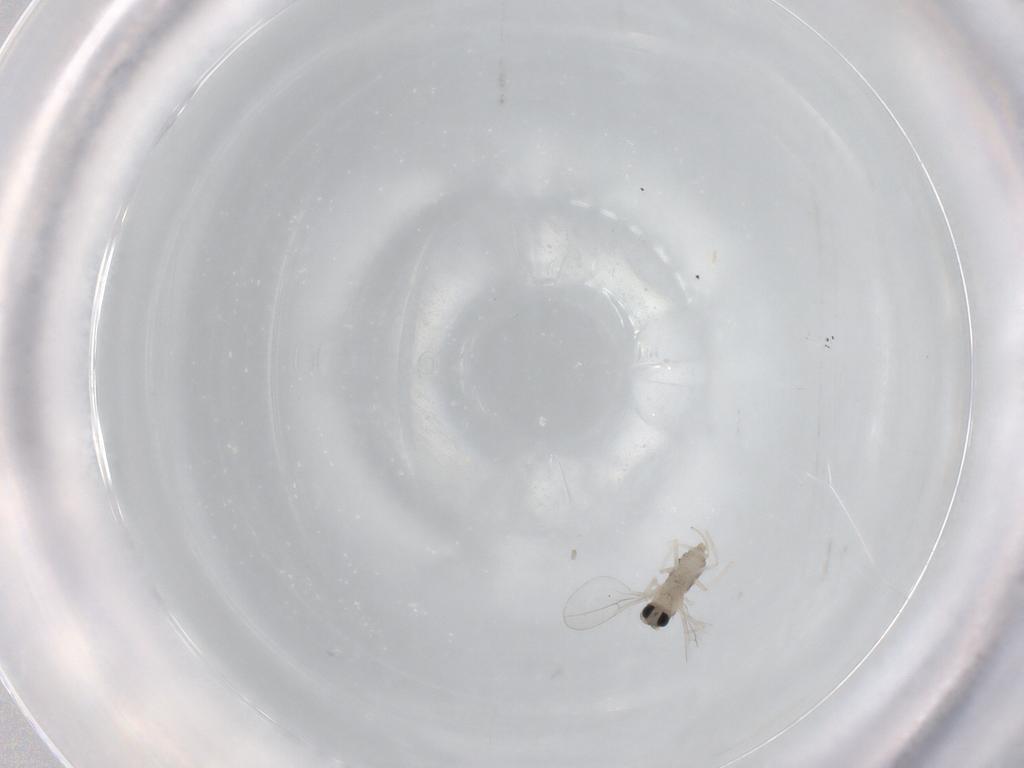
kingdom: Animalia
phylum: Arthropoda
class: Insecta
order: Diptera
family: Cecidomyiidae
